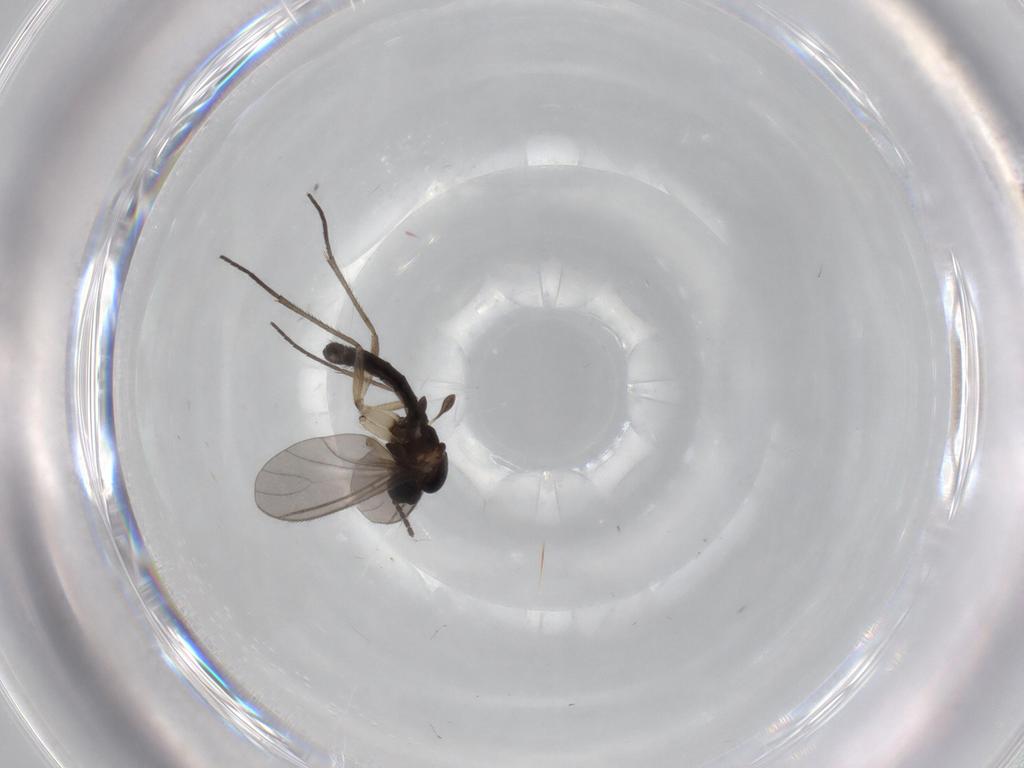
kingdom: Animalia
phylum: Arthropoda
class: Insecta
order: Diptera
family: Sciaridae
